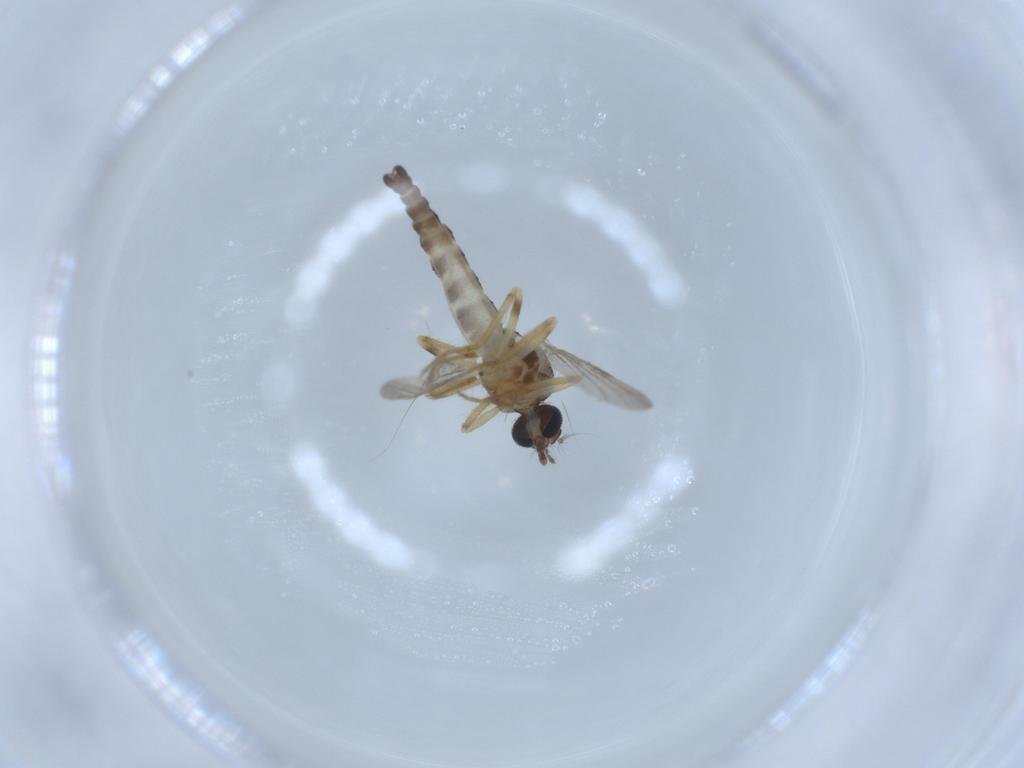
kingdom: Animalia
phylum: Arthropoda
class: Insecta
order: Diptera
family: Ceratopogonidae
